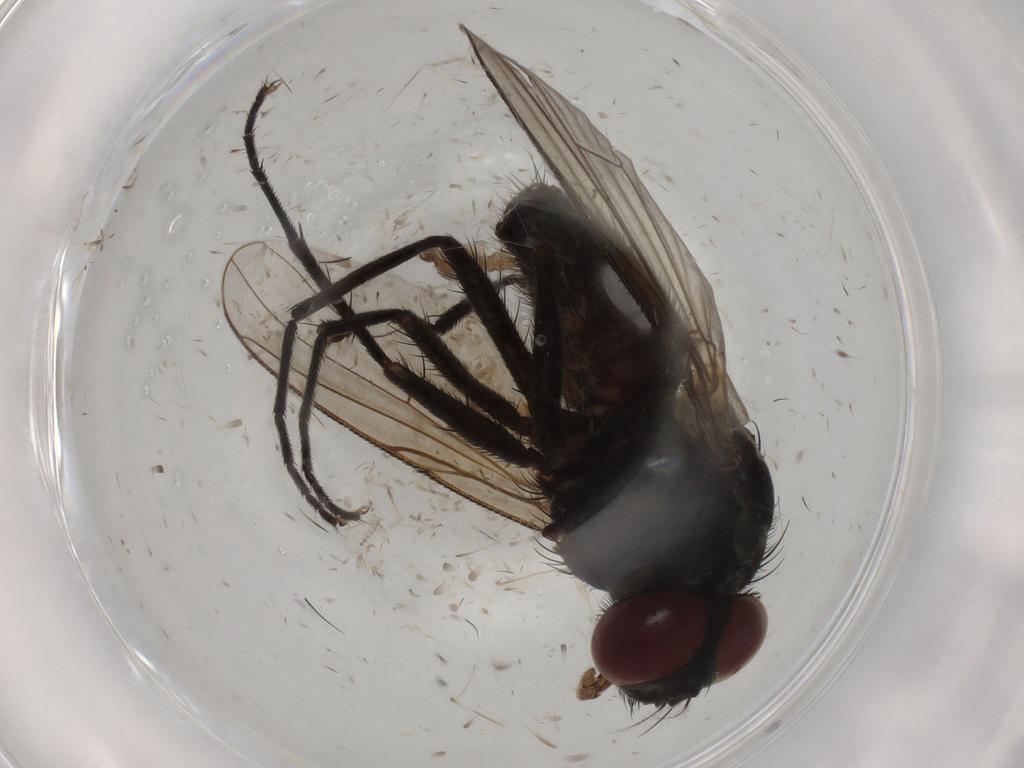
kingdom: Animalia
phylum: Arthropoda
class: Insecta
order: Diptera
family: Muscidae
